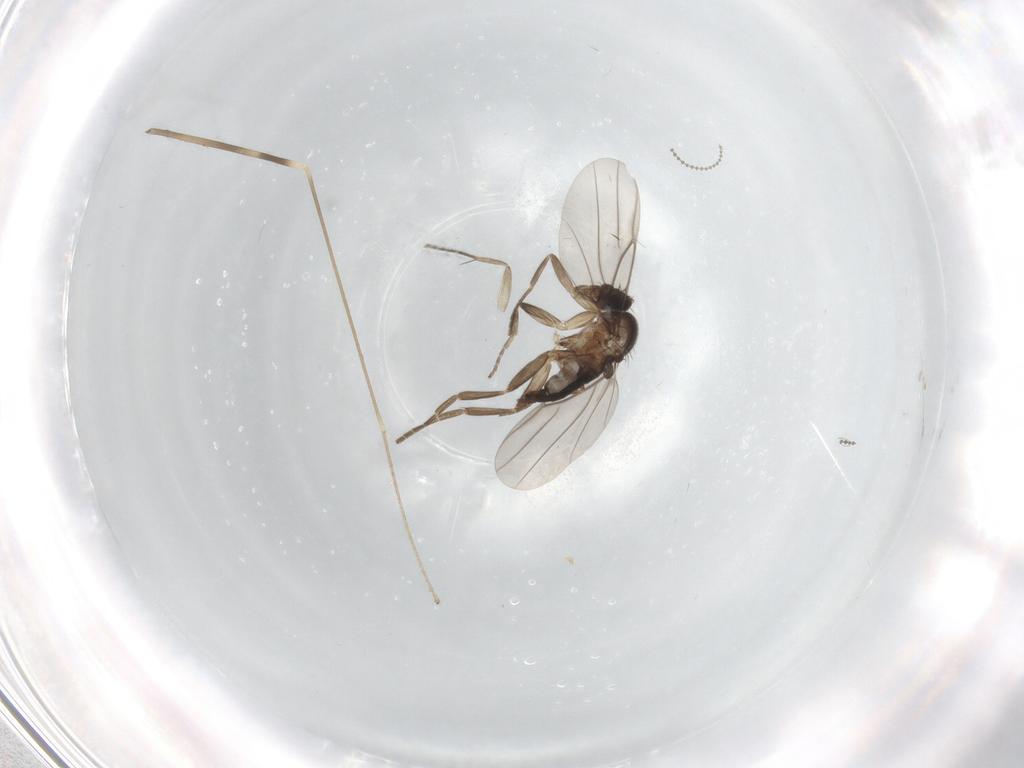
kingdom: Animalia
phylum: Arthropoda
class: Insecta
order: Diptera
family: Limoniidae
